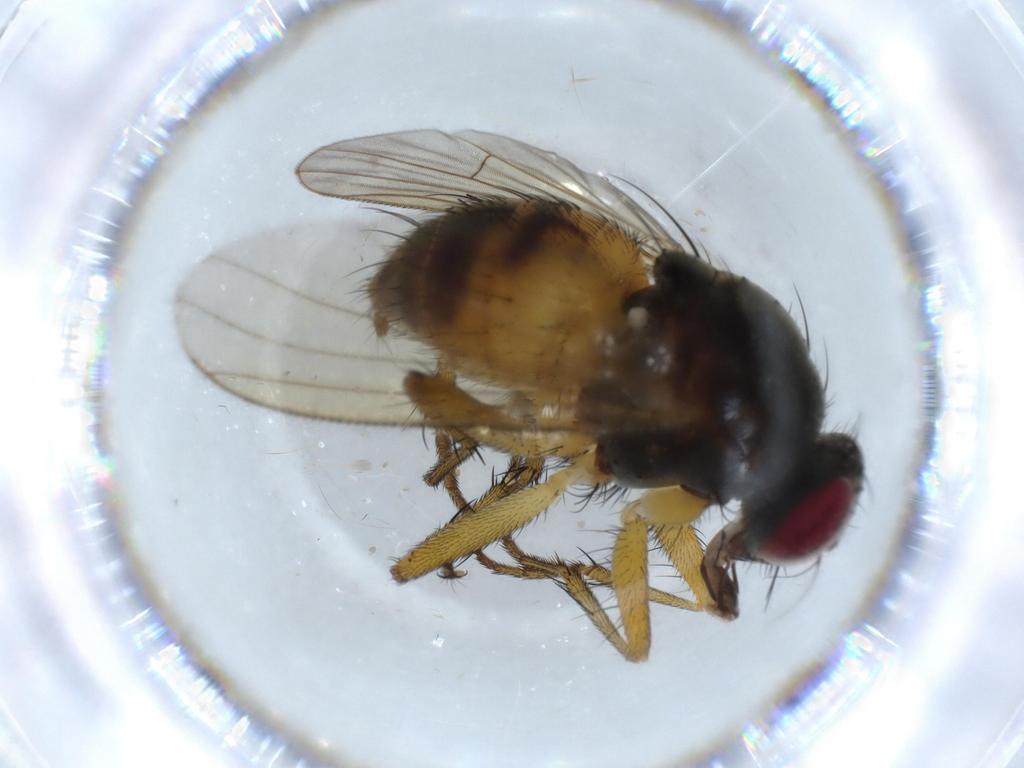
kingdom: Animalia
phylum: Arthropoda
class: Insecta
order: Diptera
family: Muscidae
